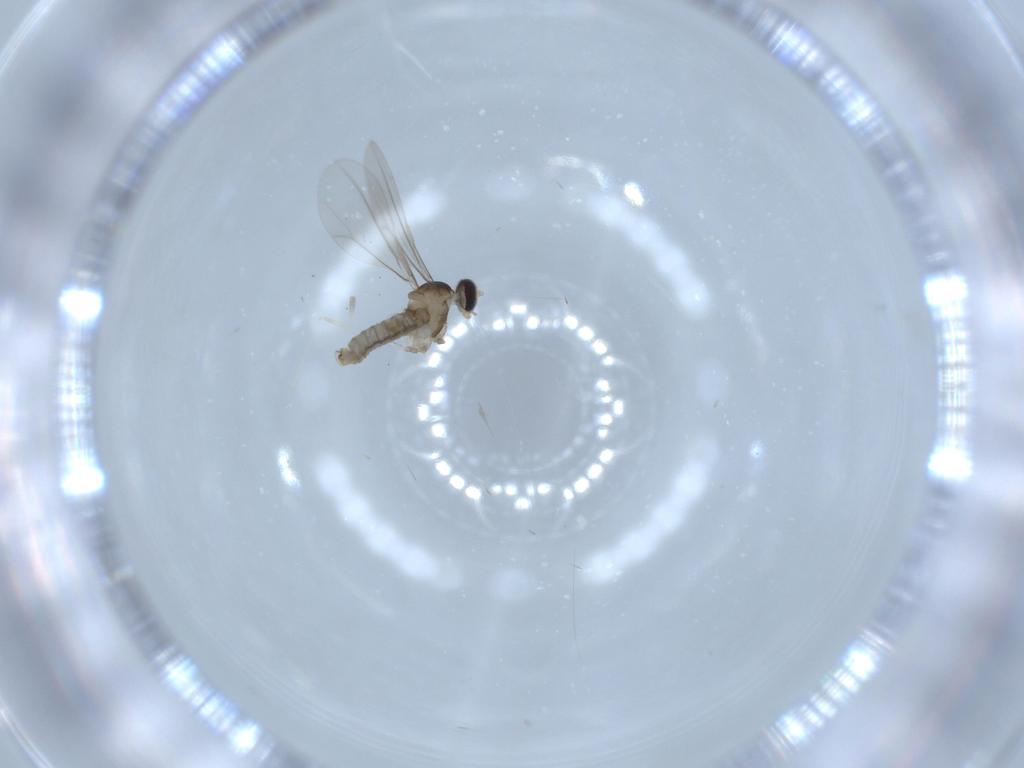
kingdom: Animalia
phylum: Arthropoda
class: Insecta
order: Diptera
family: Cecidomyiidae
